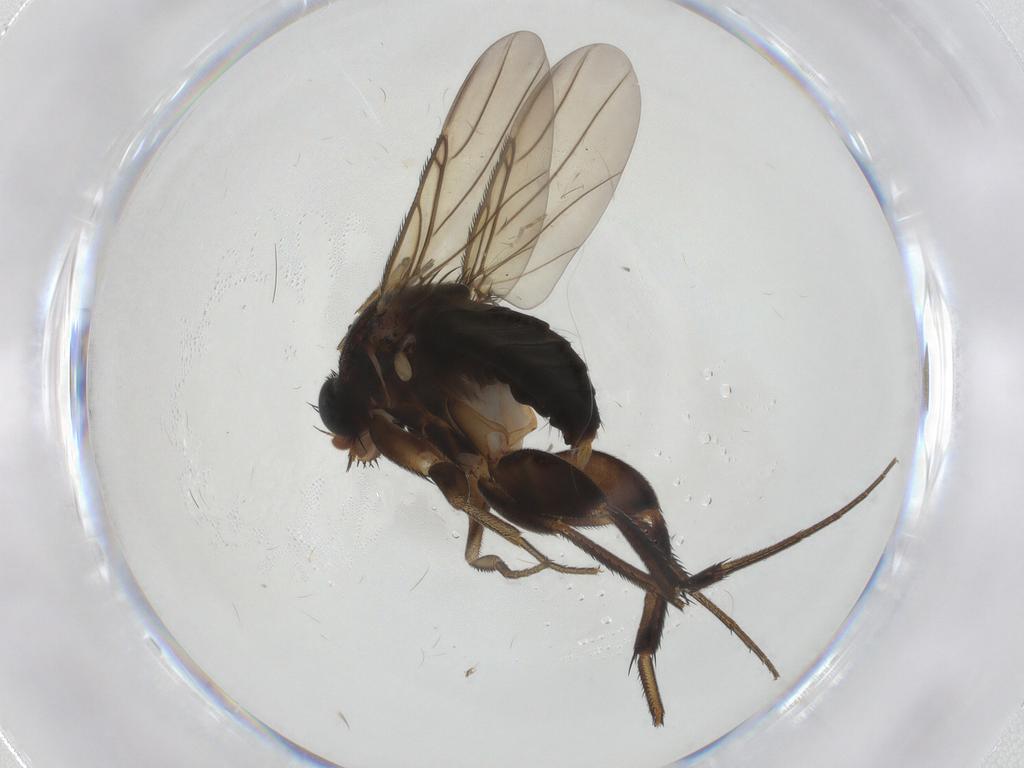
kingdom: Animalia
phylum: Arthropoda
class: Insecta
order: Diptera
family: Phoridae
